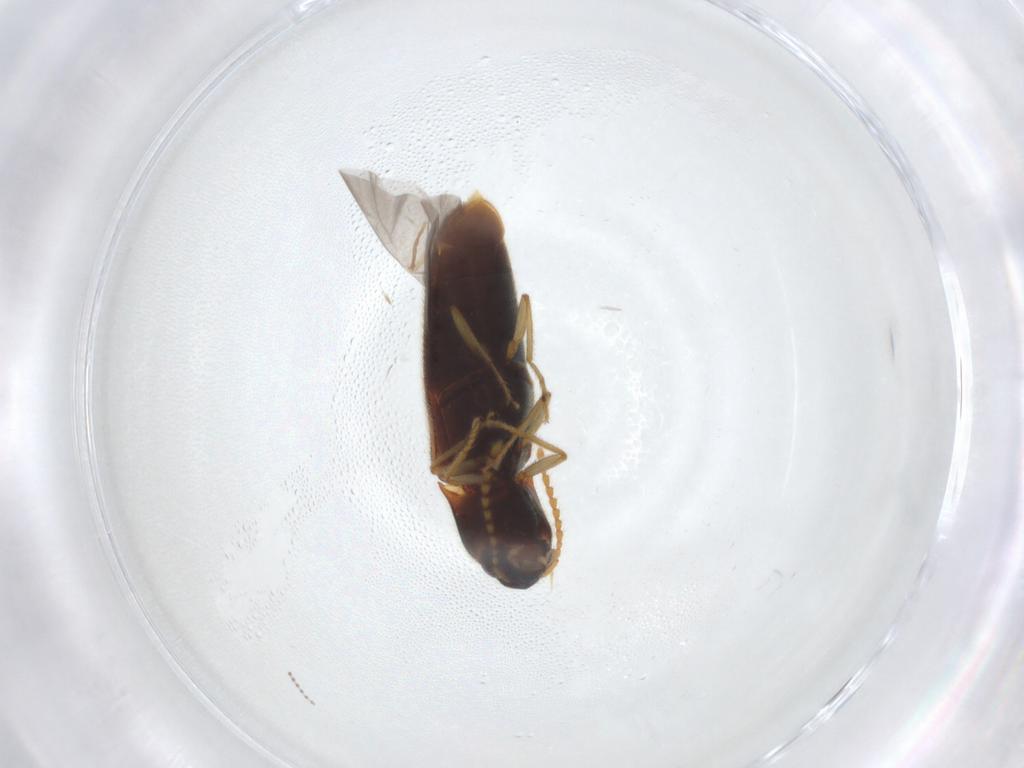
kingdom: Animalia
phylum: Arthropoda
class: Insecta
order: Coleoptera
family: Elateridae
